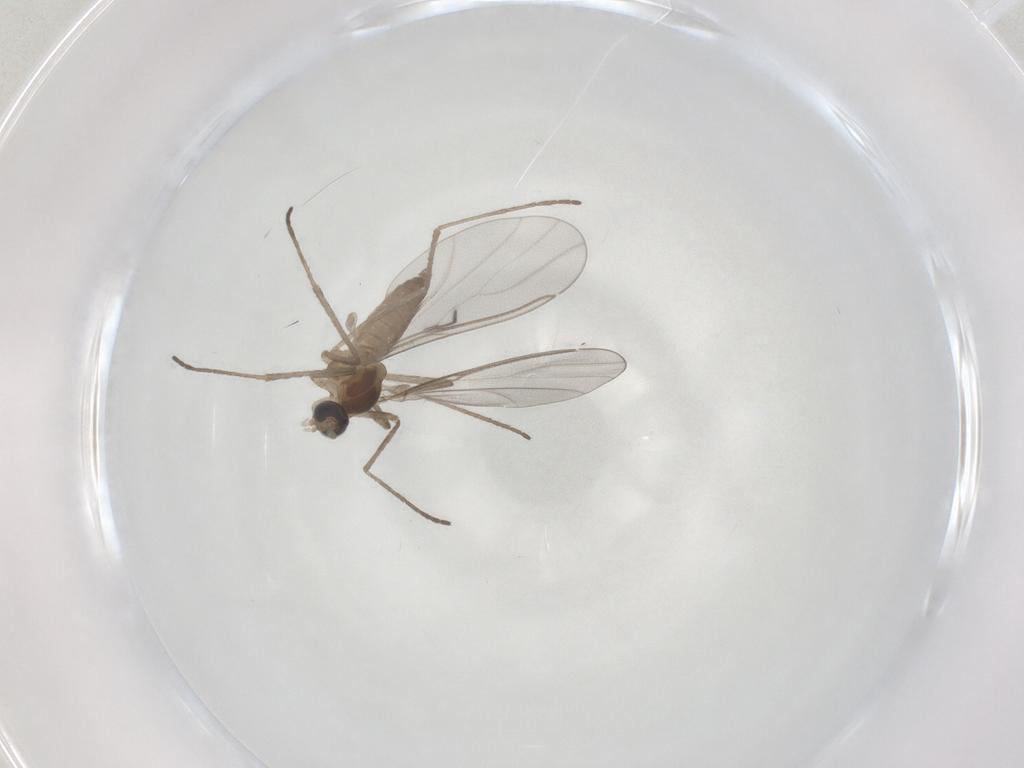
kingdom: Animalia
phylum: Arthropoda
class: Insecta
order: Diptera
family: Cecidomyiidae
